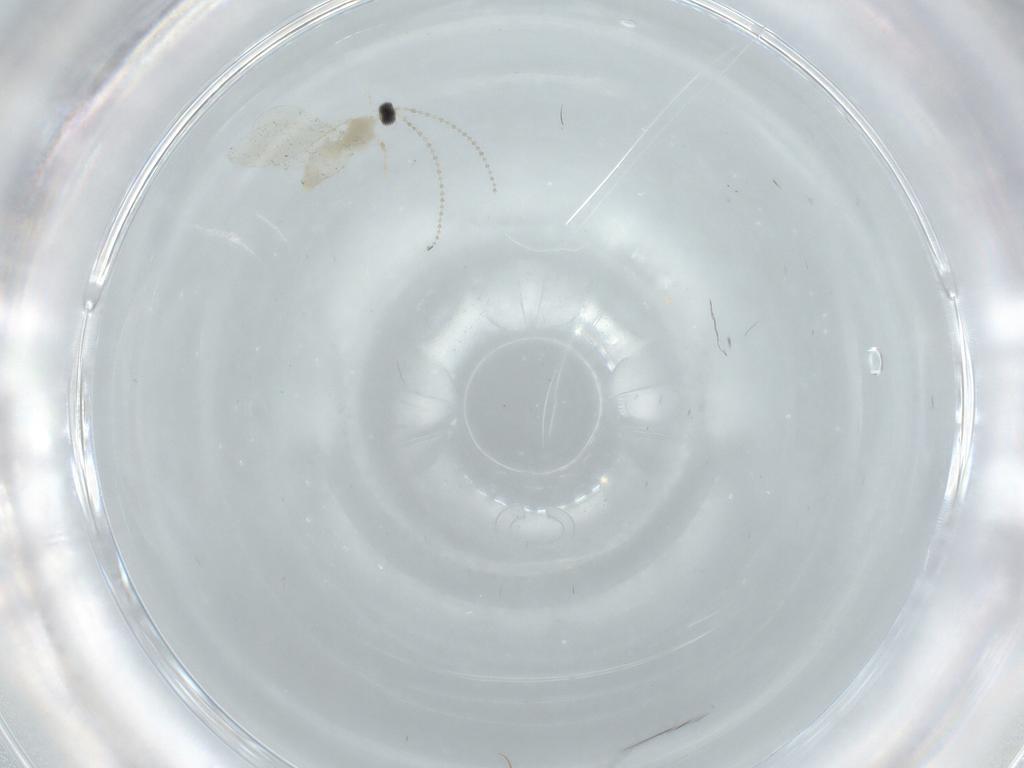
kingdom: Animalia
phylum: Arthropoda
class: Insecta
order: Diptera
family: Cecidomyiidae
